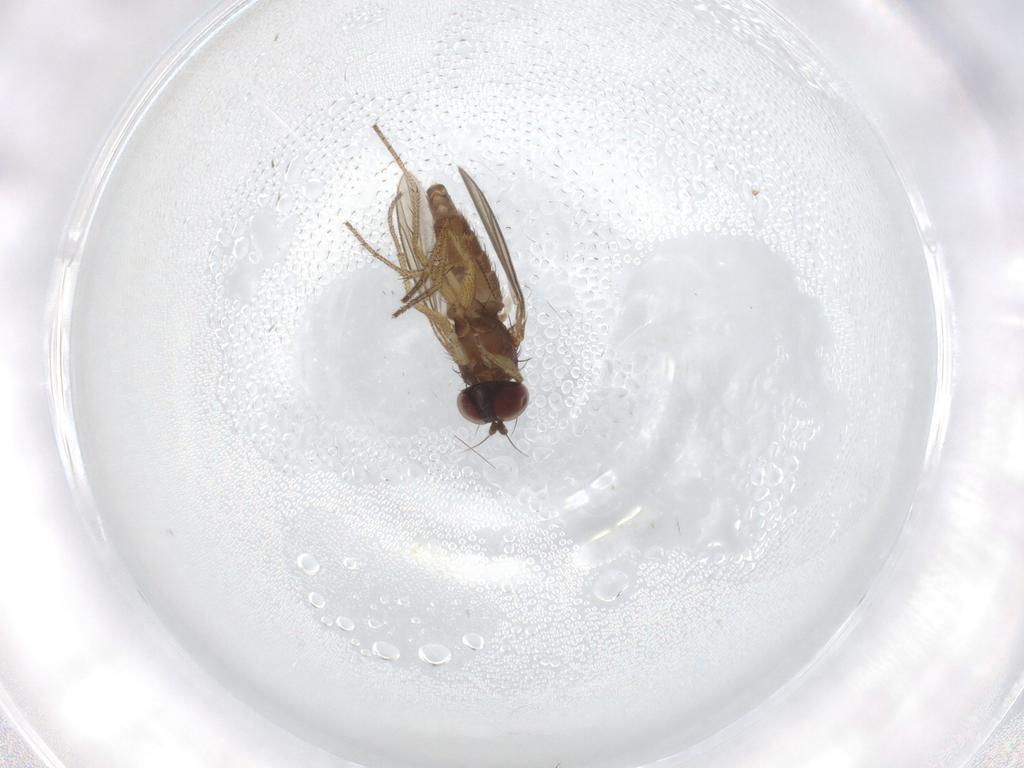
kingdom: Animalia
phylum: Arthropoda
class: Insecta
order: Diptera
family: Dolichopodidae
